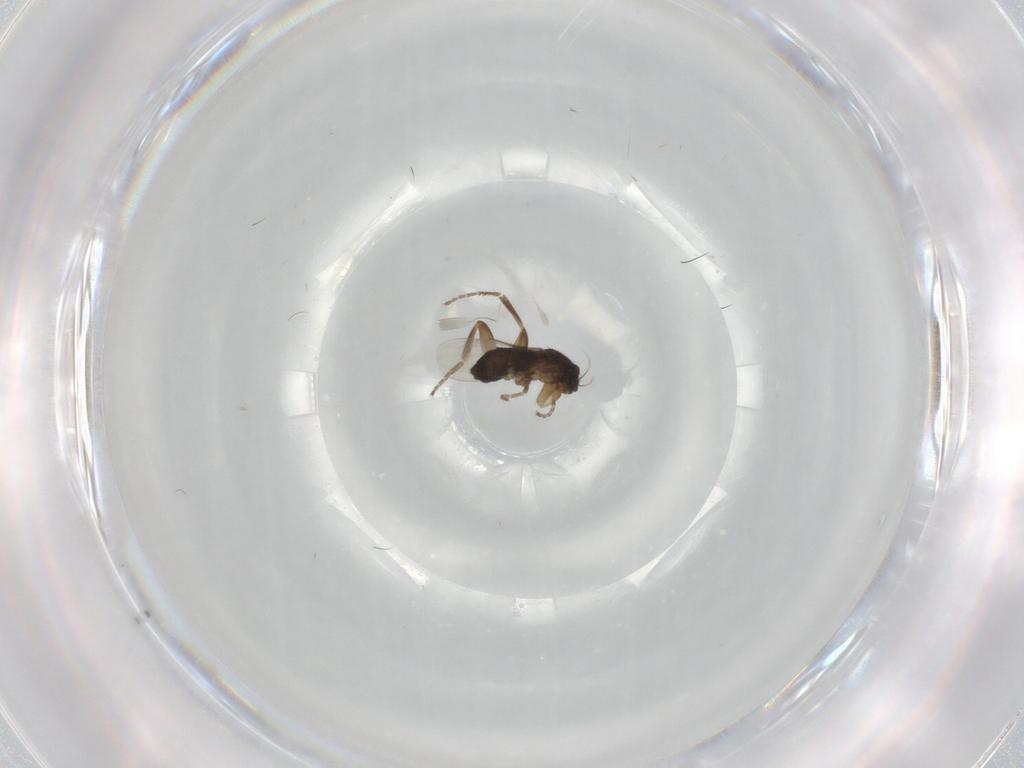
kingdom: Animalia
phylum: Arthropoda
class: Insecta
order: Diptera
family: Phoridae
